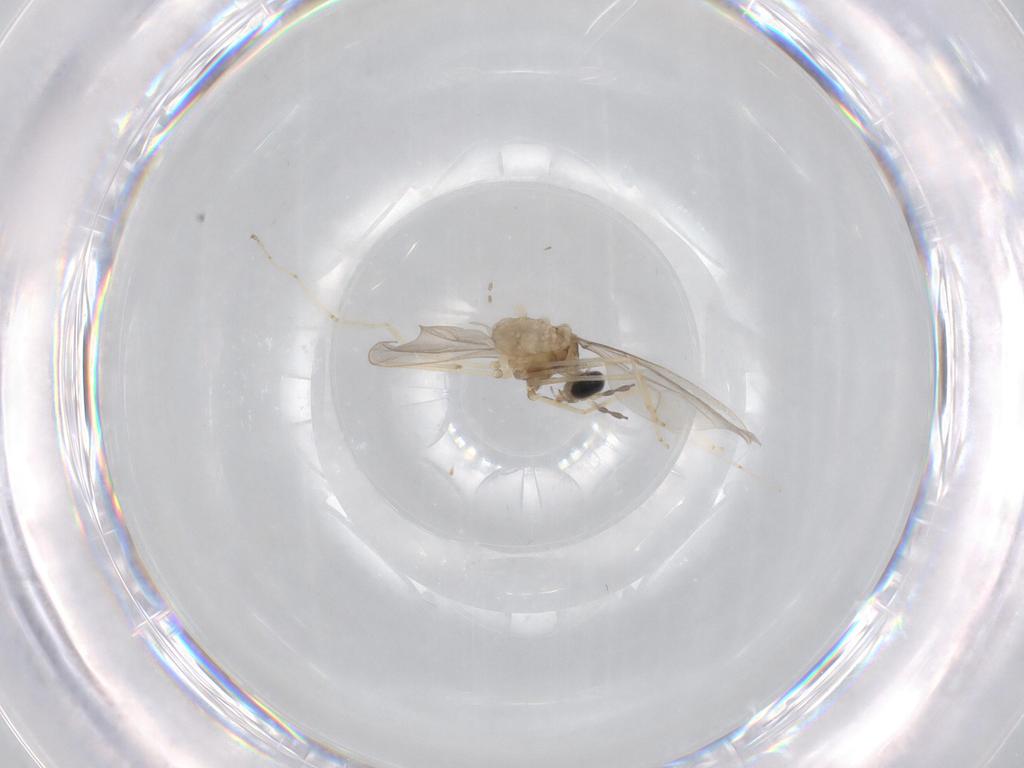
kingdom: Animalia
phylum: Arthropoda
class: Insecta
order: Diptera
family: Cecidomyiidae
